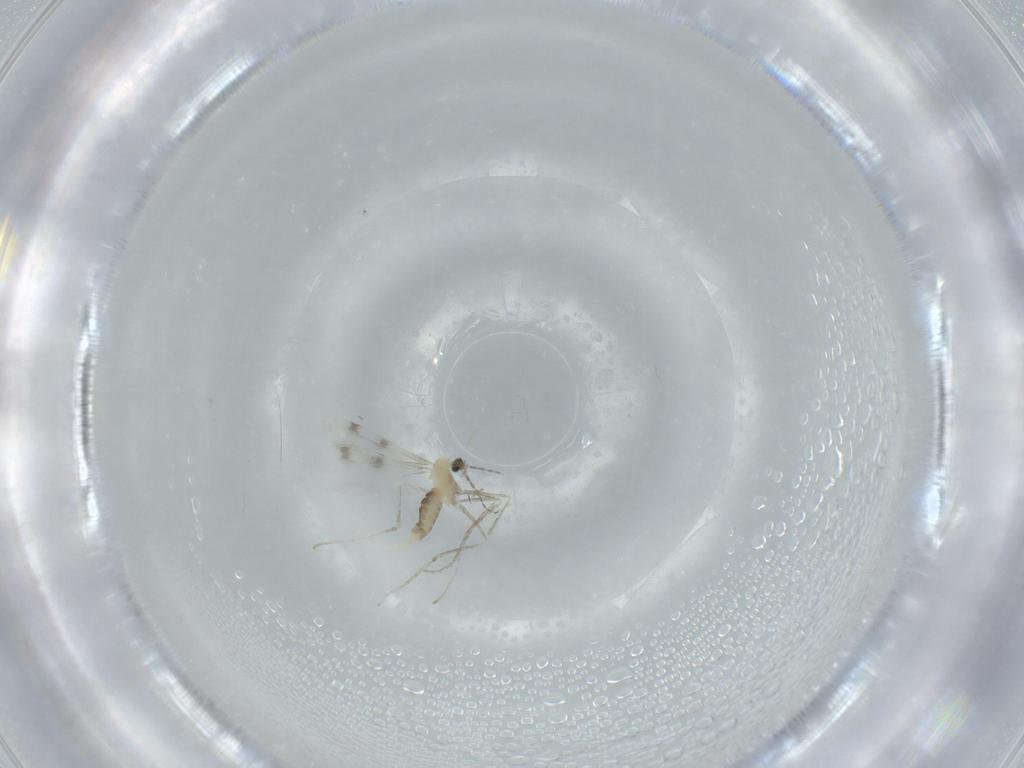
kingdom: Animalia
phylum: Arthropoda
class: Insecta
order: Diptera
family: Cecidomyiidae
